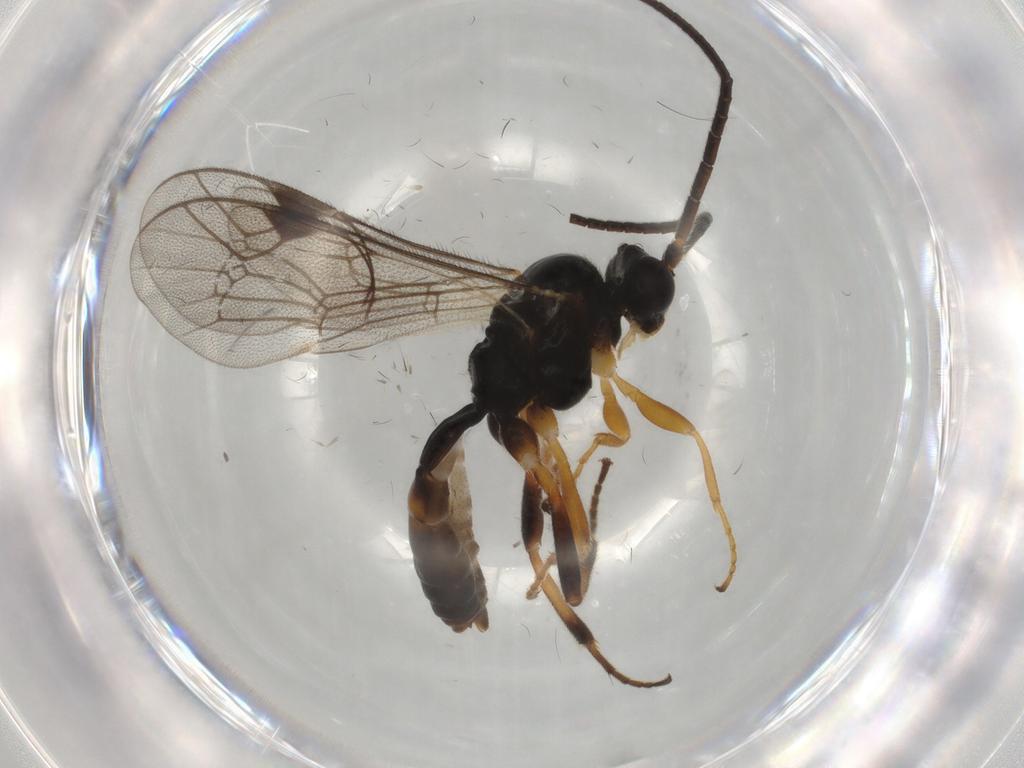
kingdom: Animalia
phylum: Arthropoda
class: Insecta
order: Hymenoptera
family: Ichneumonidae
